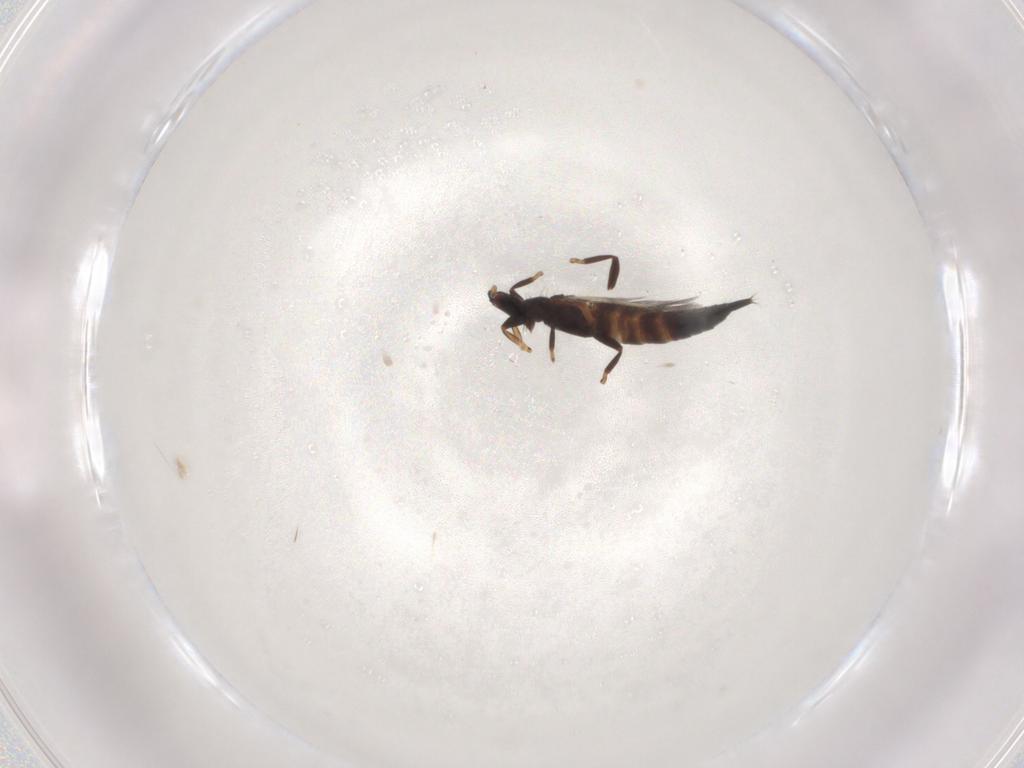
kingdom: Animalia
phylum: Arthropoda
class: Insecta
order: Thysanoptera
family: Phlaeothripidae
